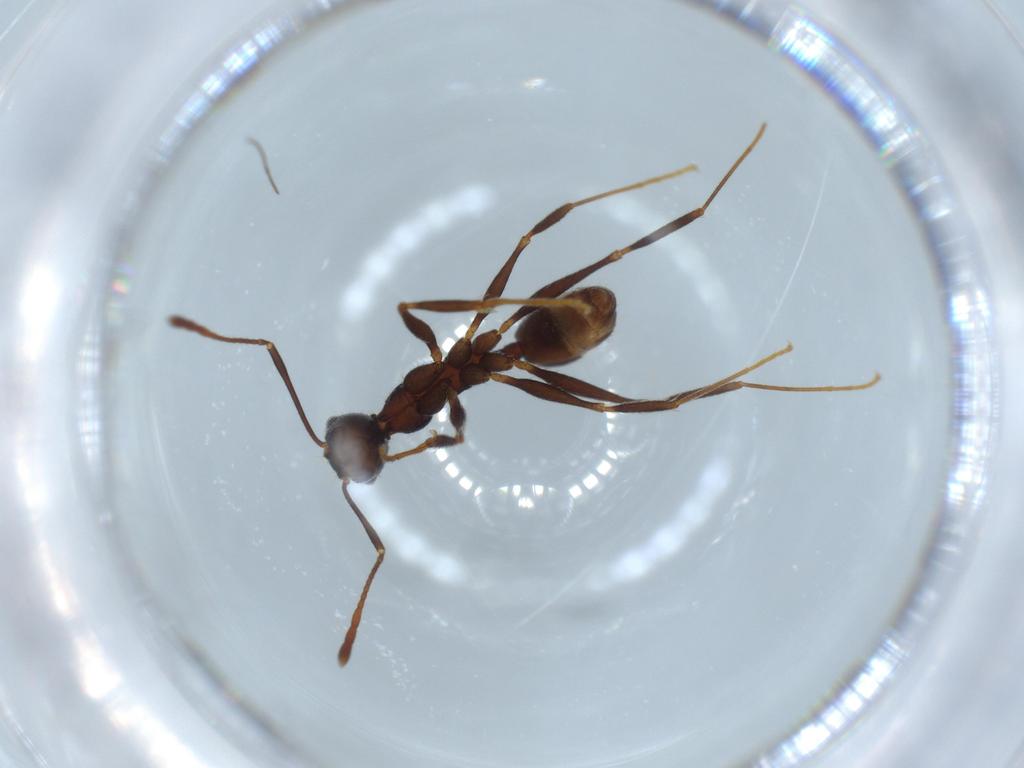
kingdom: Animalia
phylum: Arthropoda
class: Insecta
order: Hymenoptera
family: Formicidae
